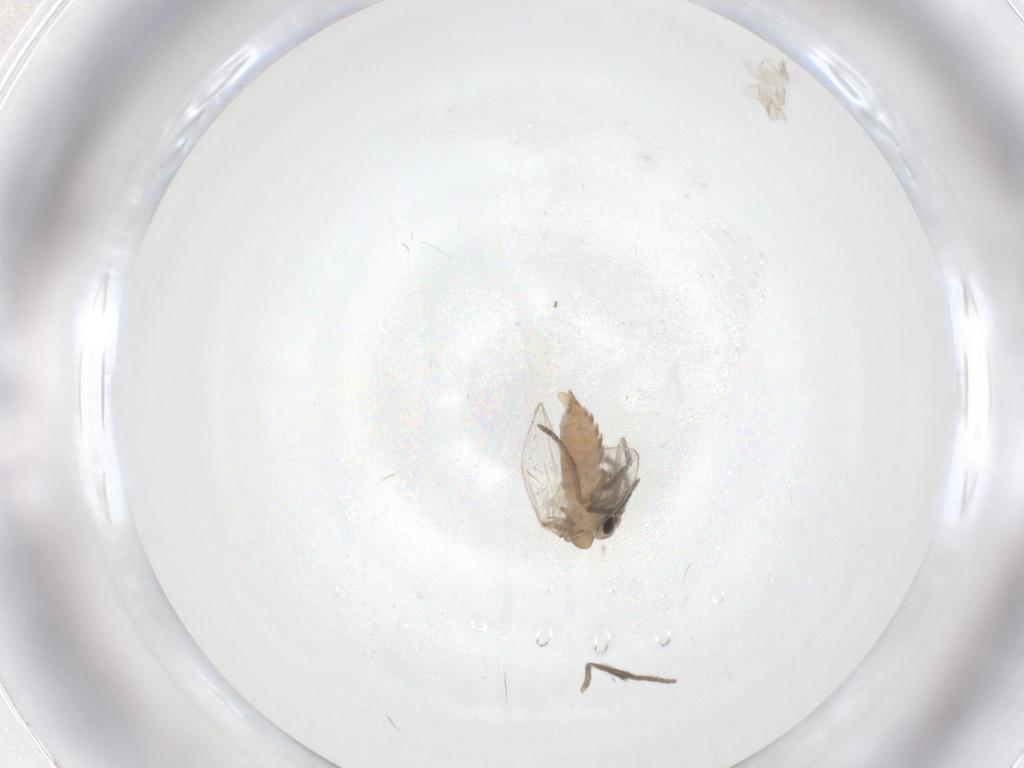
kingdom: Animalia
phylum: Arthropoda
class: Insecta
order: Diptera
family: Psychodidae
